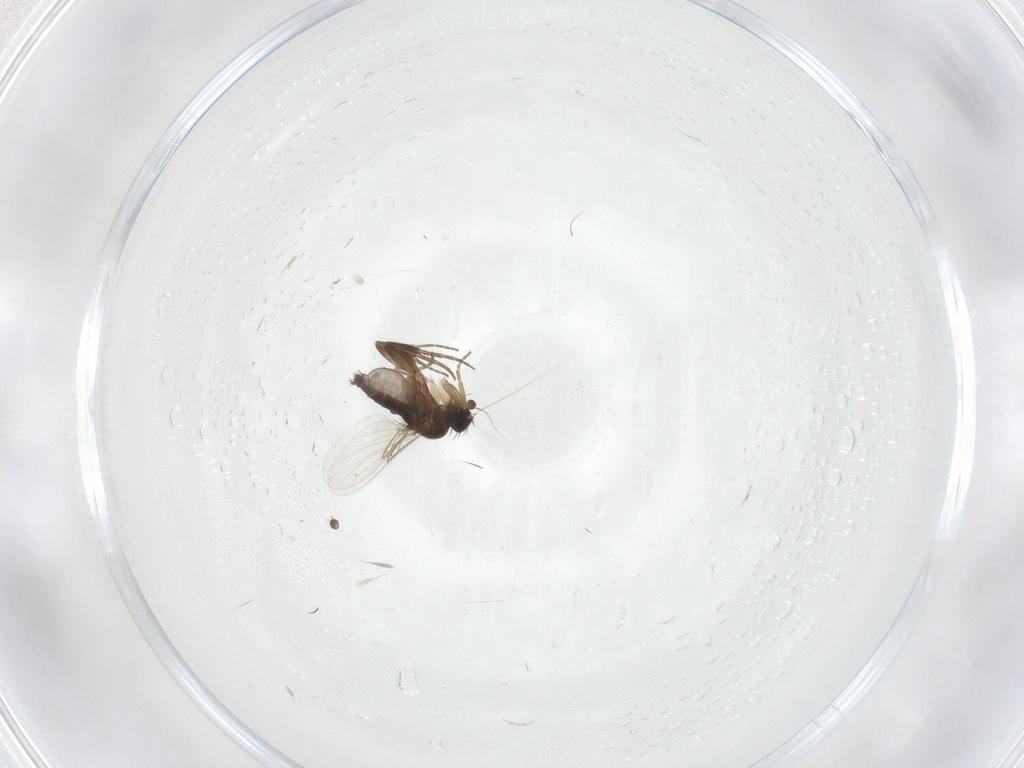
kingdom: Animalia
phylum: Arthropoda
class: Insecta
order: Diptera
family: Phoridae
